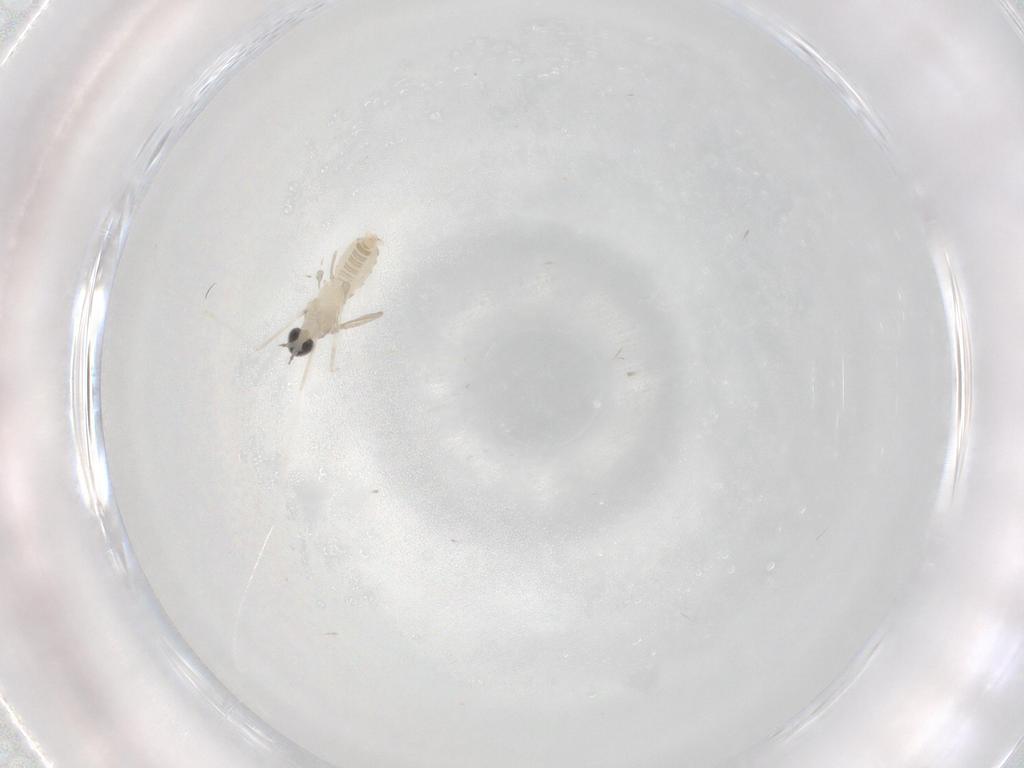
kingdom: Animalia
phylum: Arthropoda
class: Insecta
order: Diptera
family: Cecidomyiidae
